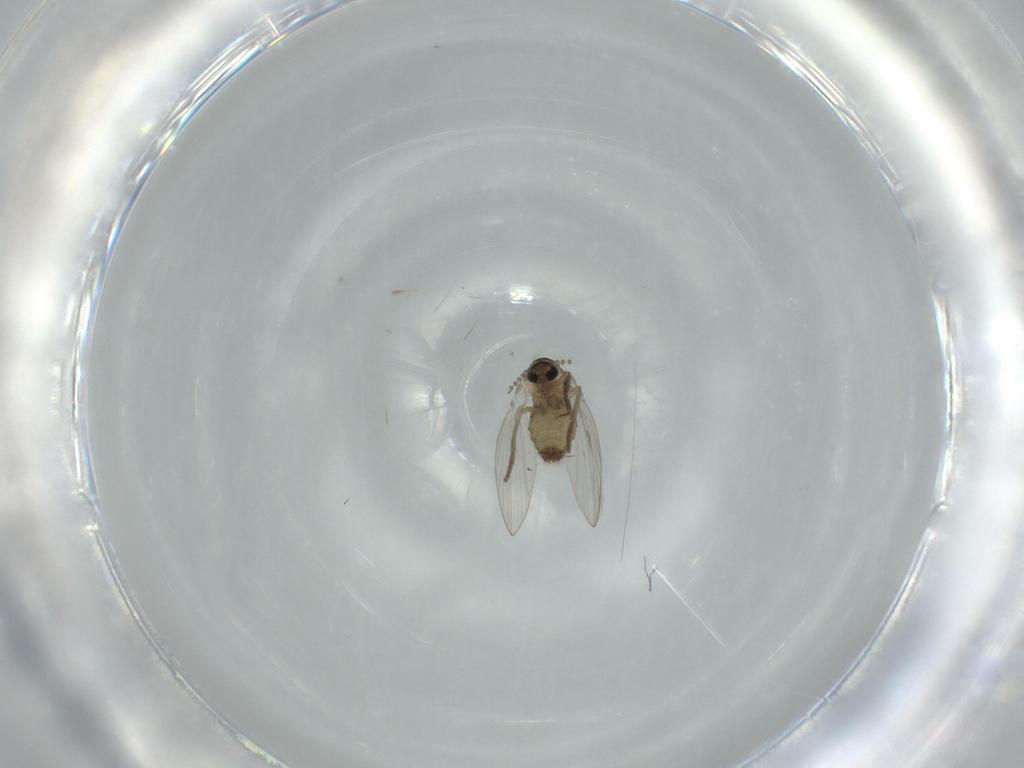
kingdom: Animalia
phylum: Arthropoda
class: Insecta
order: Diptera
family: Psychodidae
